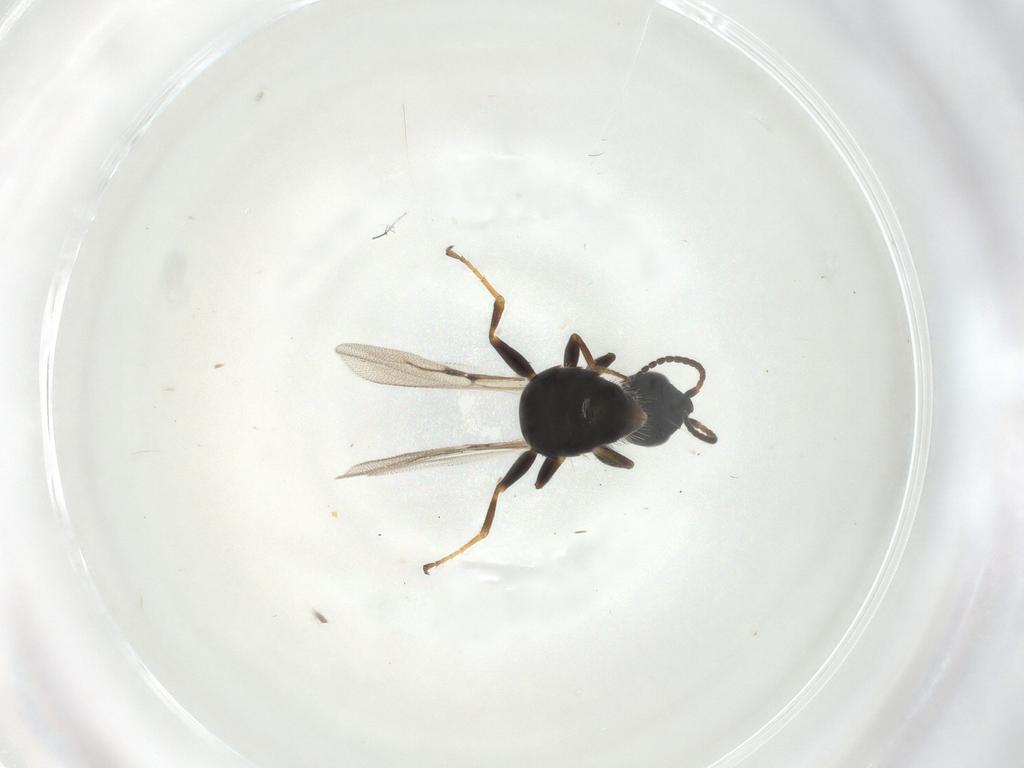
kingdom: Animalia
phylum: Arthropoda
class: Insecta
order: Hymenoptera
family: Bethylidae
